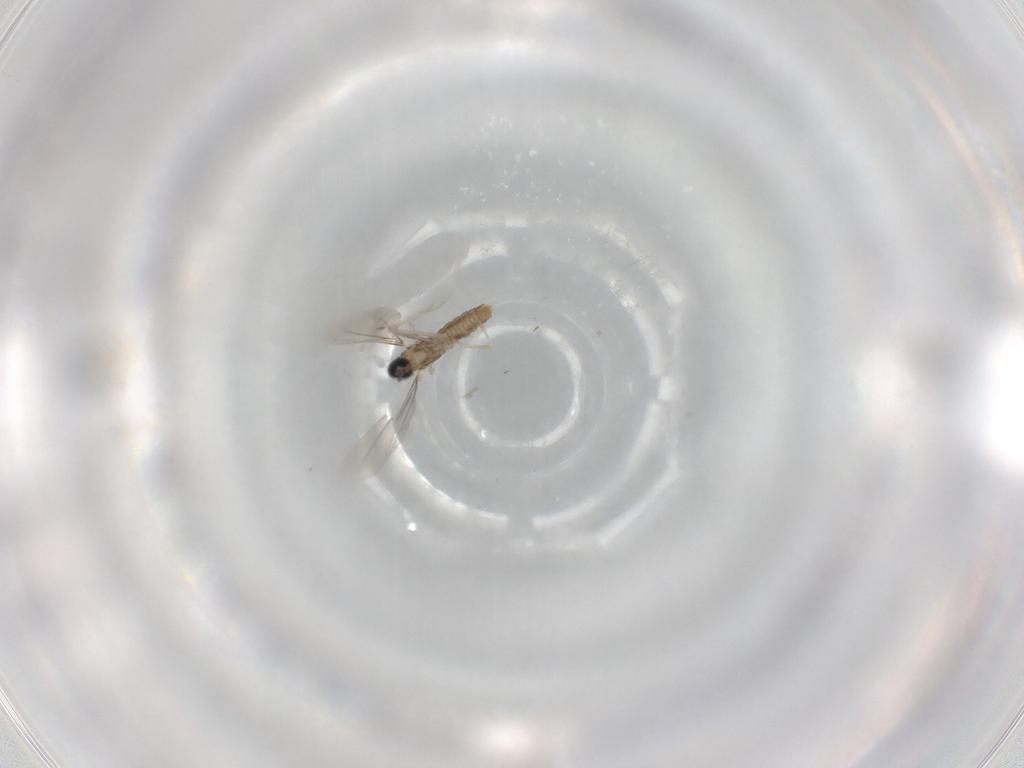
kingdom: Animalia
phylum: Arthropoda
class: Insecta
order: Diptera
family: Cecidomyiidae
